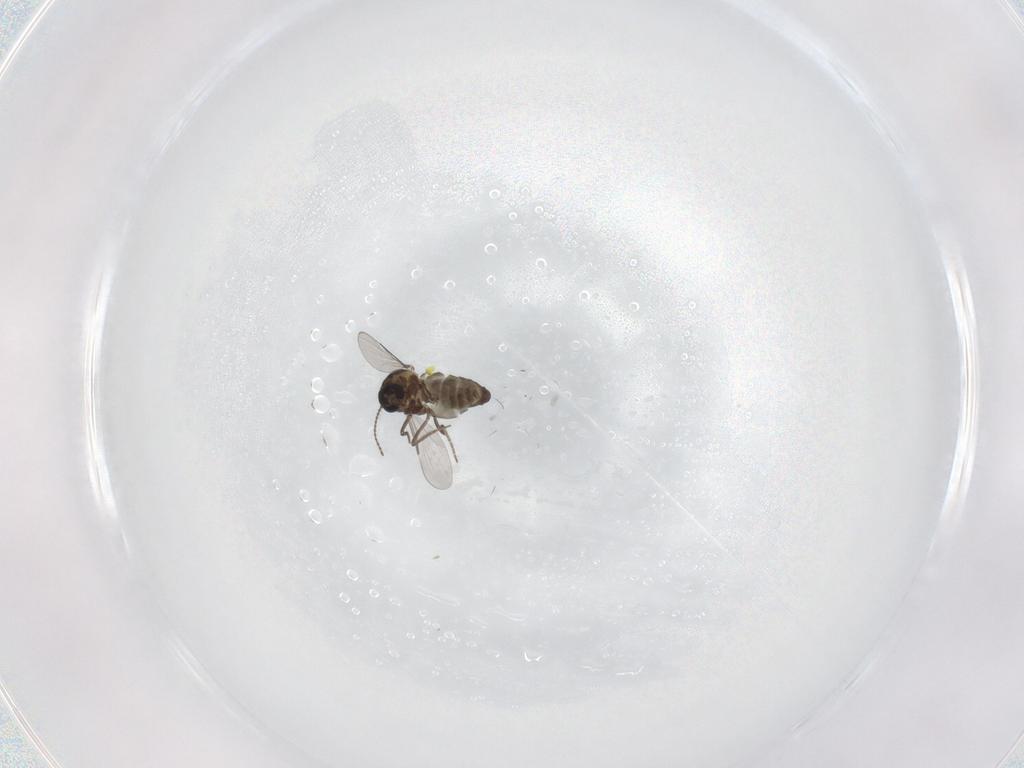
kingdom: Animalia
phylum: Arthropoda
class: Insecta
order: Diptera
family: Ceratopogonidae
